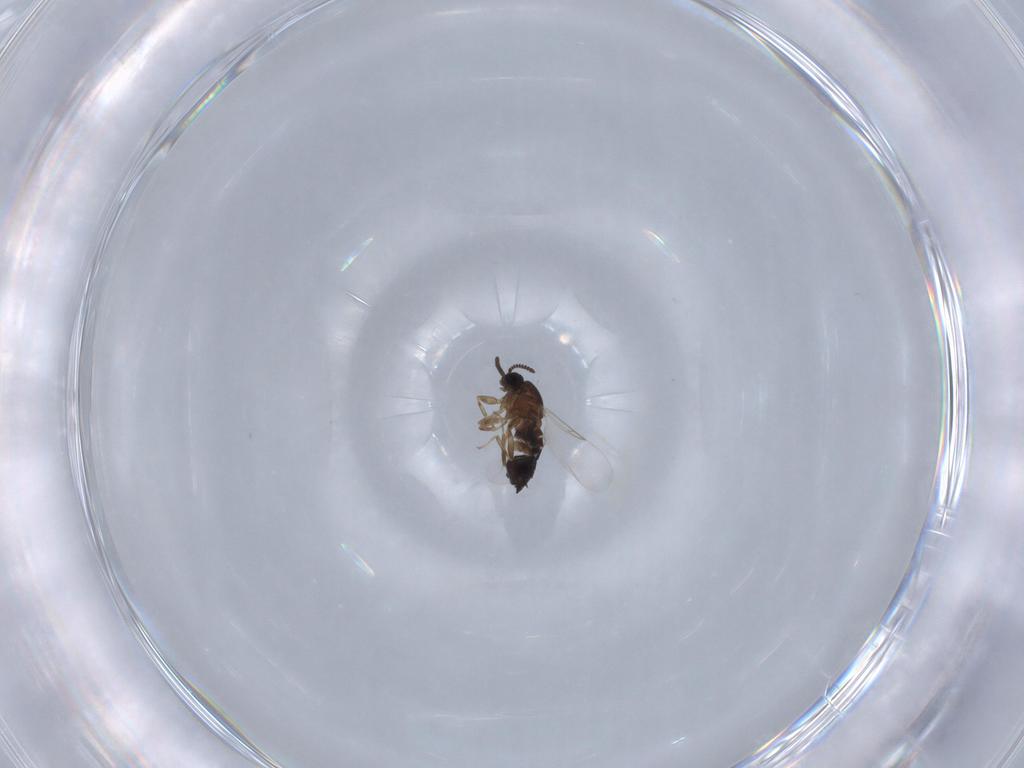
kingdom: Animalia
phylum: Arthropoda
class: Insecta
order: Diptera
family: Scatopsidae
